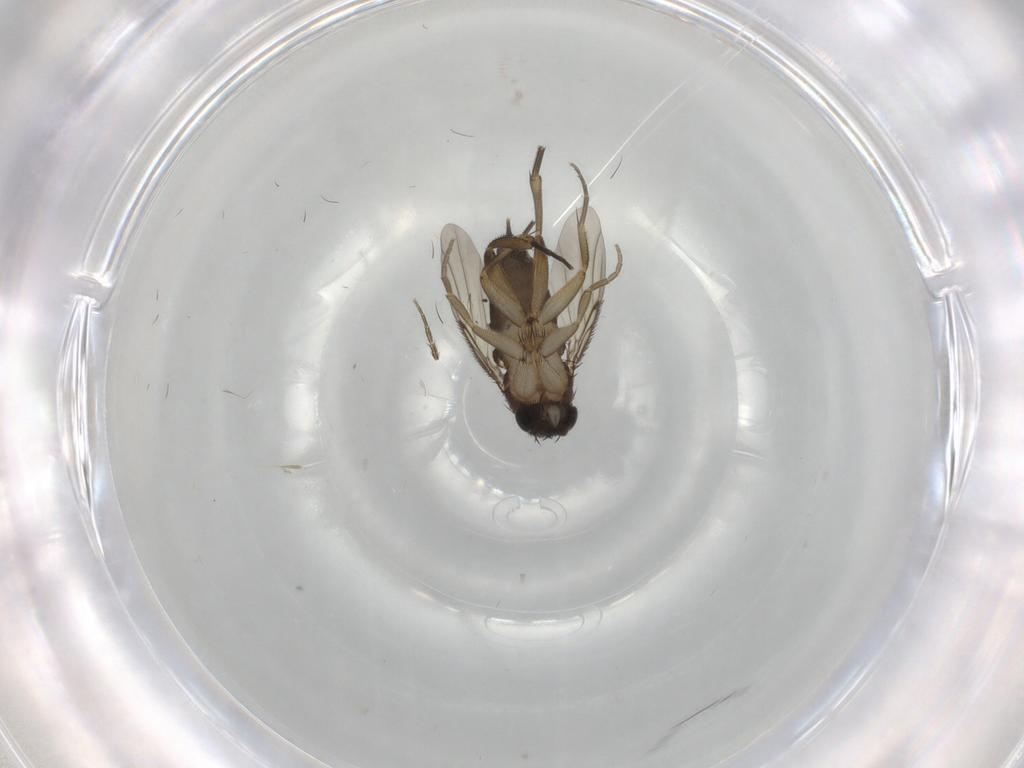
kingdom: Animalia
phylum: Arthropoda
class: Insecta
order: Diptera
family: Phoridae
